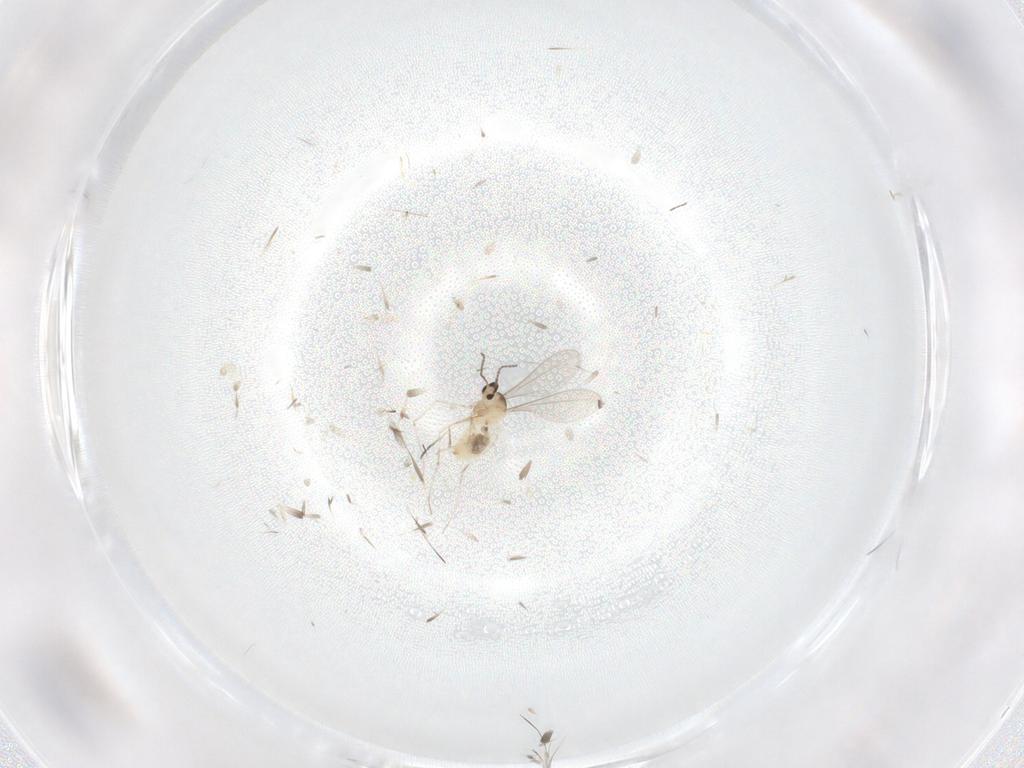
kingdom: Animalia
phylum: Arthropoda
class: Insecta
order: Diptera
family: Cecidomyiidae
